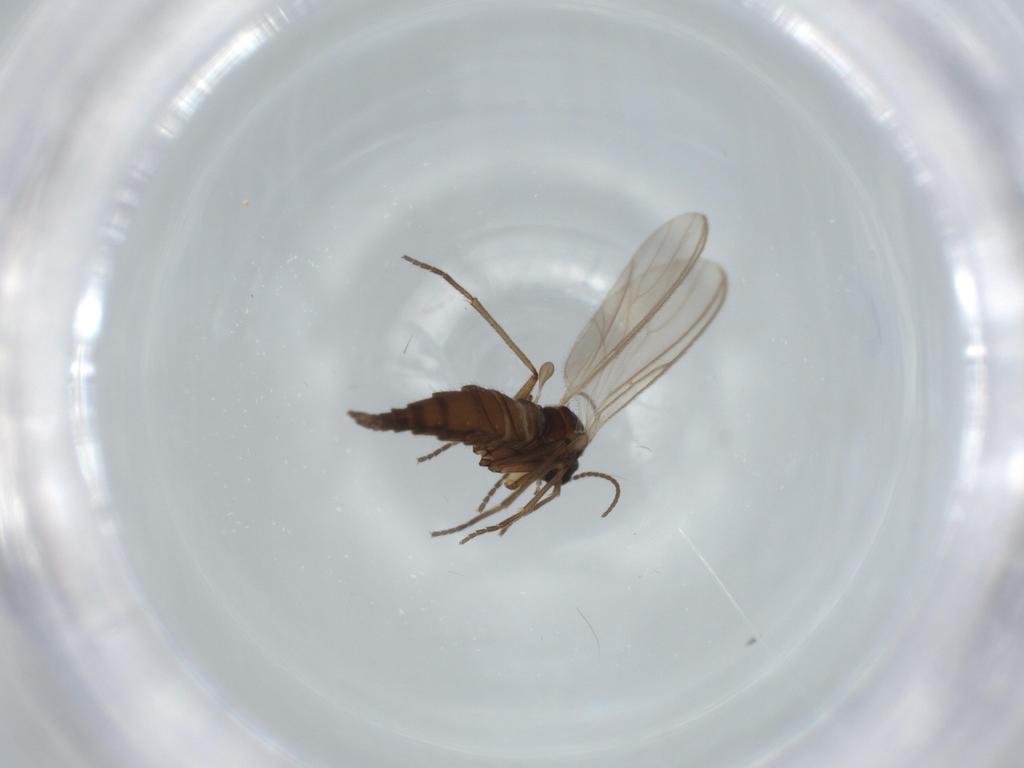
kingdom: Animalia
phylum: Arthropoda
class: Insecta
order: Diptera
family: Sciaridae
